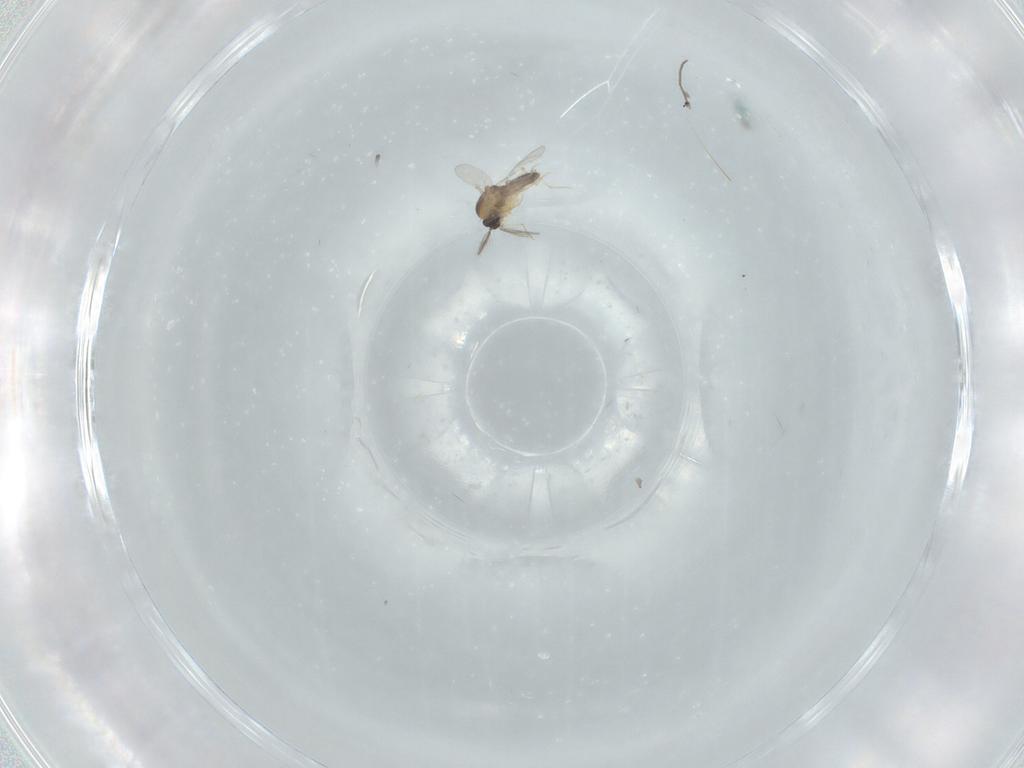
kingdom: Animalia
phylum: Arthropoda
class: Insecta
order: Diptera
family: Ceratopogonidae
